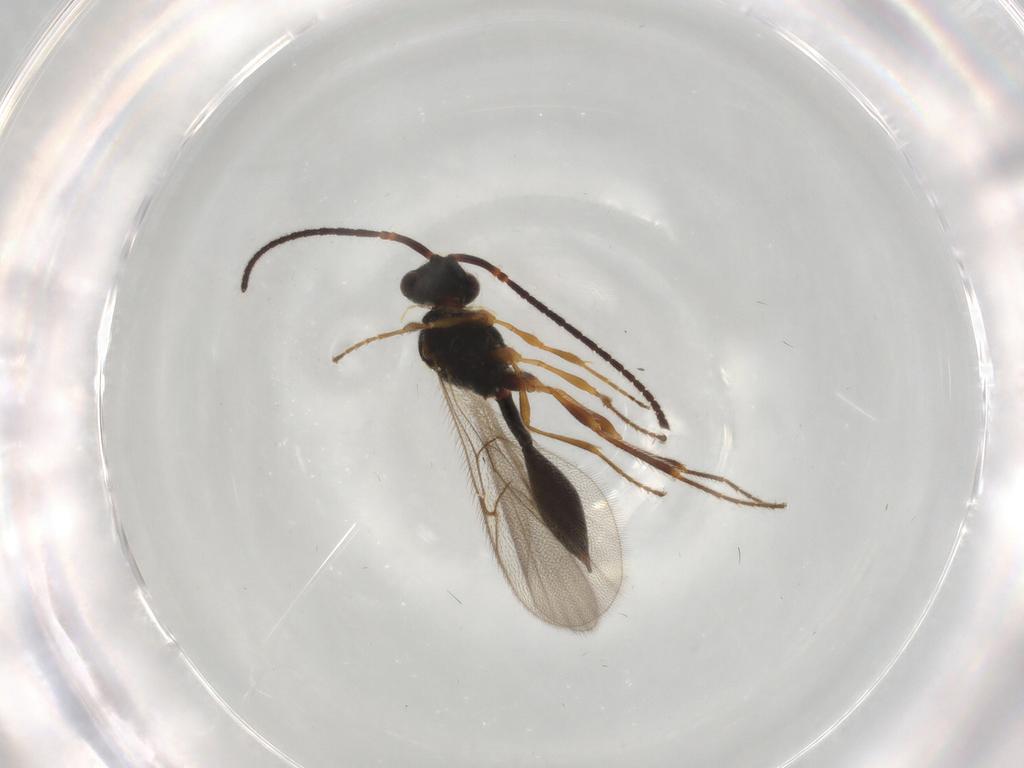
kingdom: Animalia
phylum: Arthropoda
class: Insecta
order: Hymenoptera
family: Diapriidae
